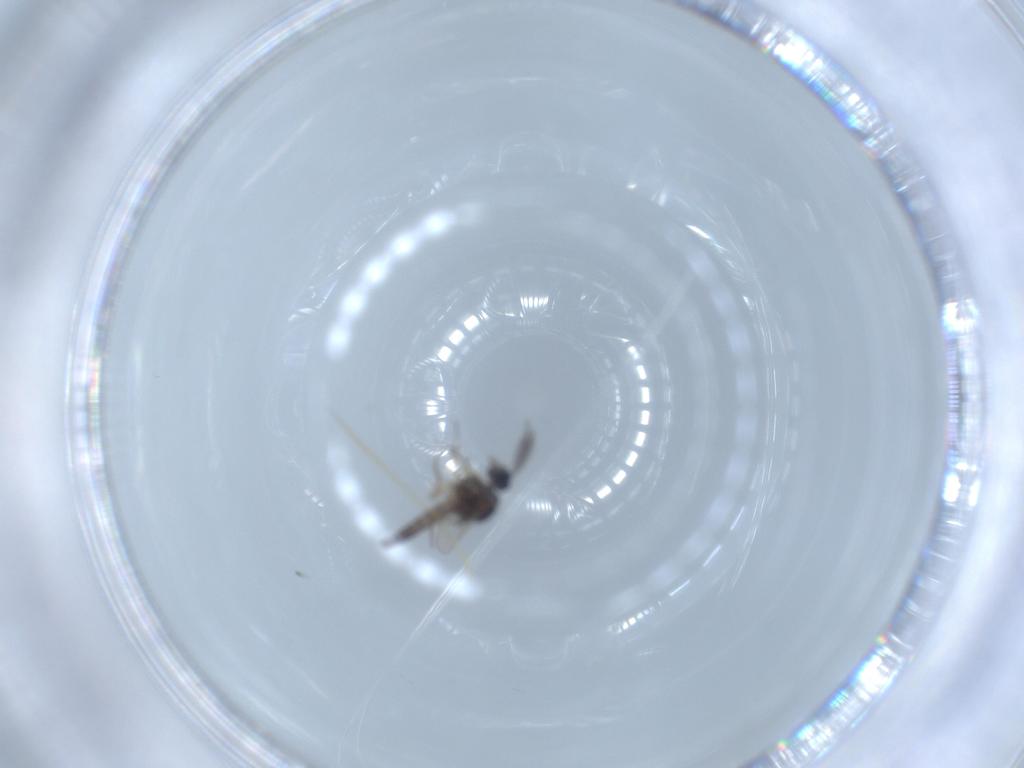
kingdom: Animalia
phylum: Arthropoda
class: Insecta
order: Diptera
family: Ceratopogonidae
